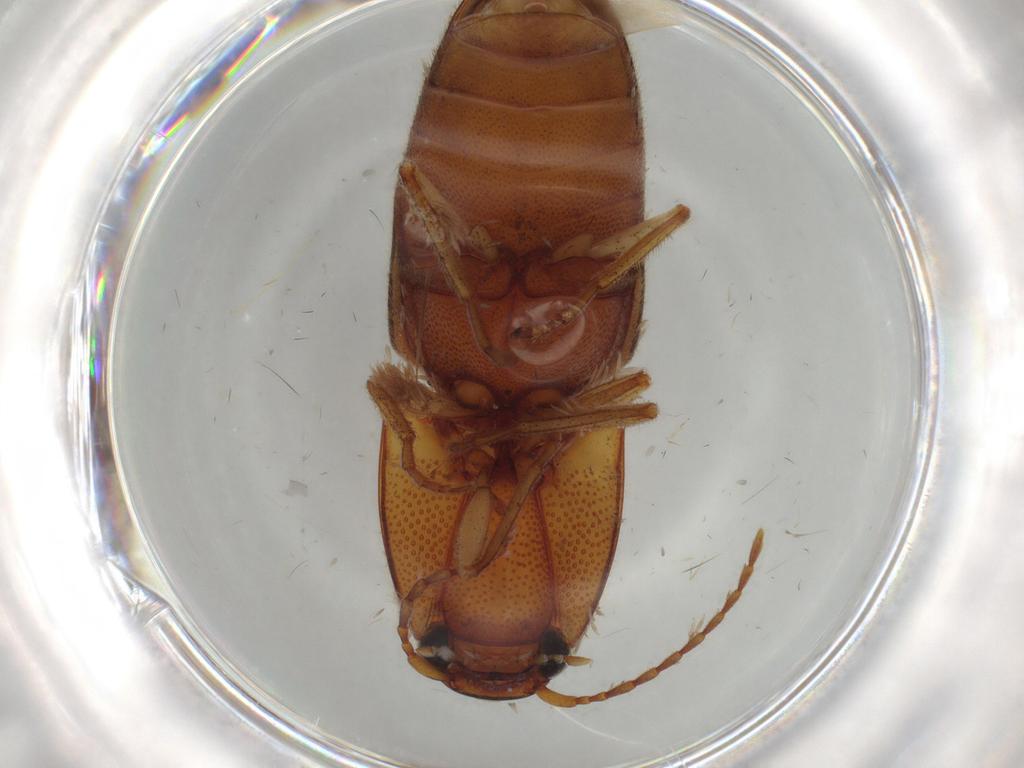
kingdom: Animalia
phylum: Arthropoda
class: Insecta
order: Coleoptera
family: Elateridae
